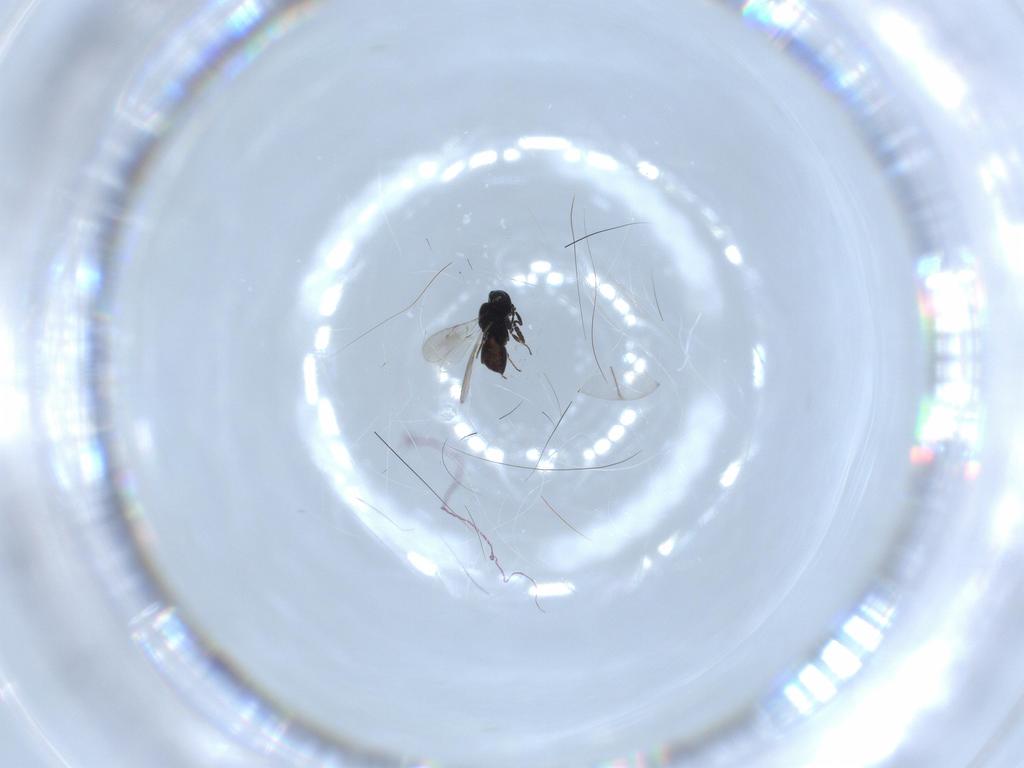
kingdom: Animalia
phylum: Arthropoda
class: Insecta
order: Hymenoptera
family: Scelionidae
